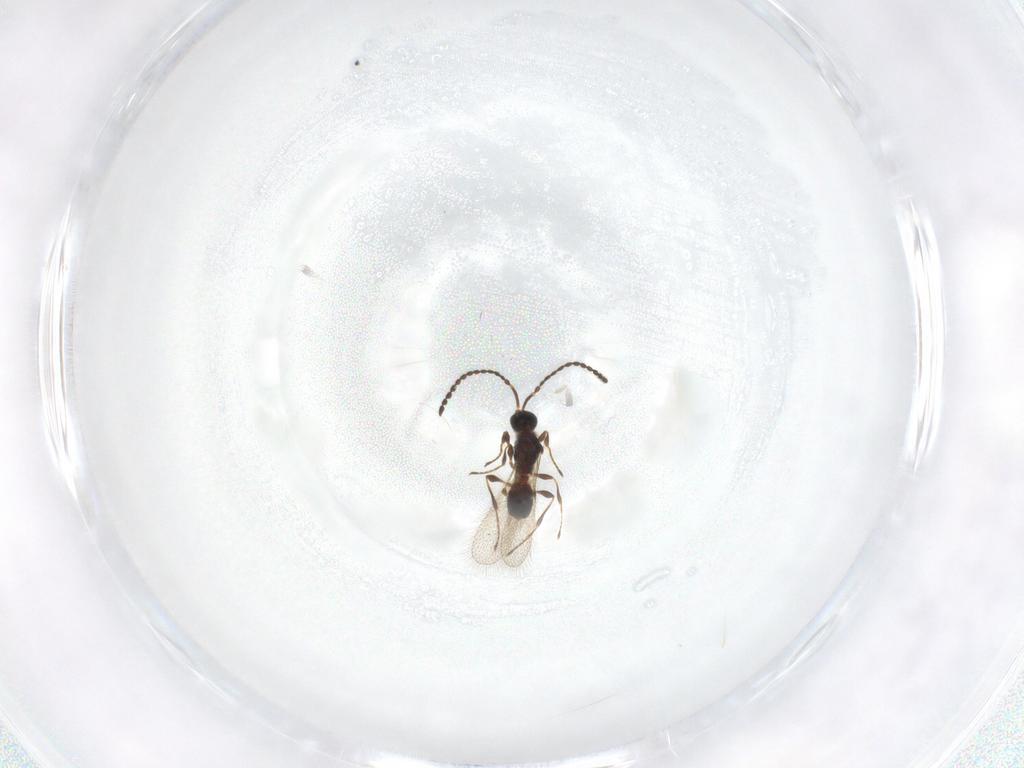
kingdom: Animalia
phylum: Arthropoda
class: Insecta
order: Hymenoptera
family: Diapriidae
